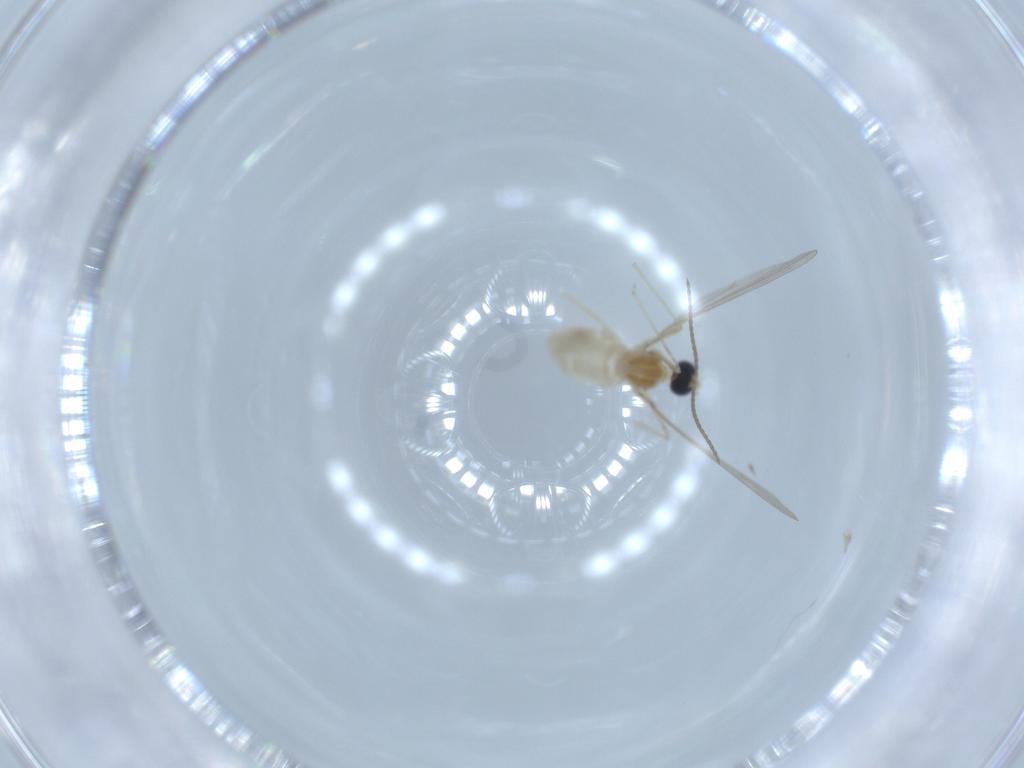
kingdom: Animalia
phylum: Arthropoda
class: Insecta
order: Diptera
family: Cecidomyiidae
